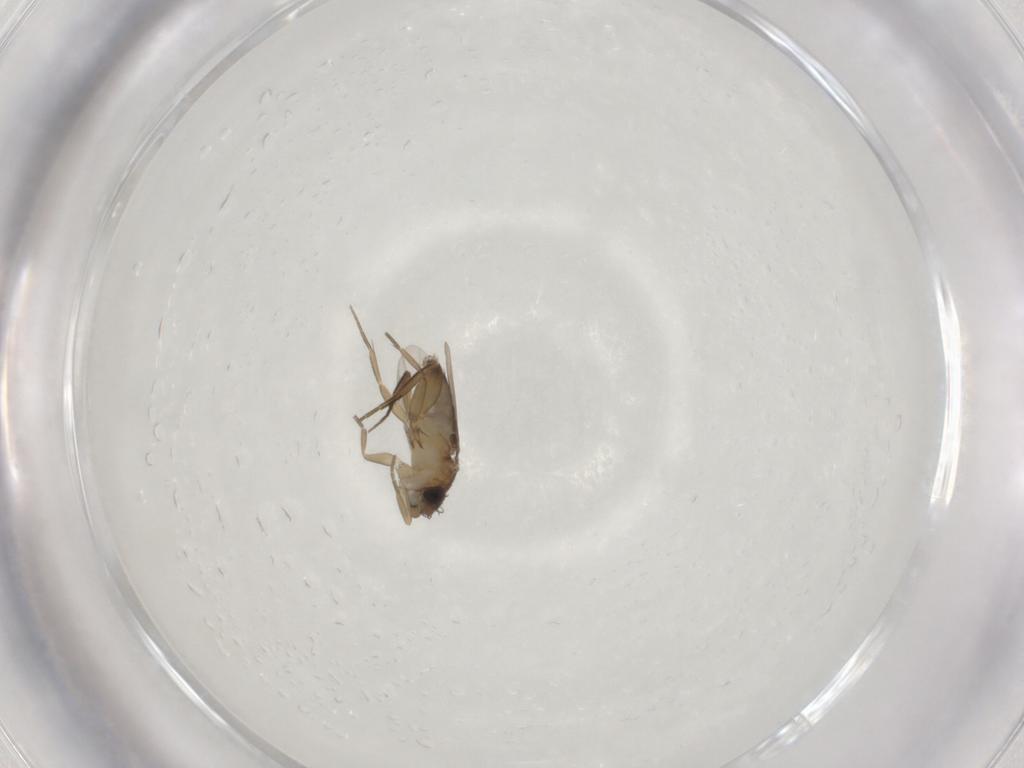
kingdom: Animalia
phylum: Arthropoda
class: Insecta
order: Diptera
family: Phoridae
